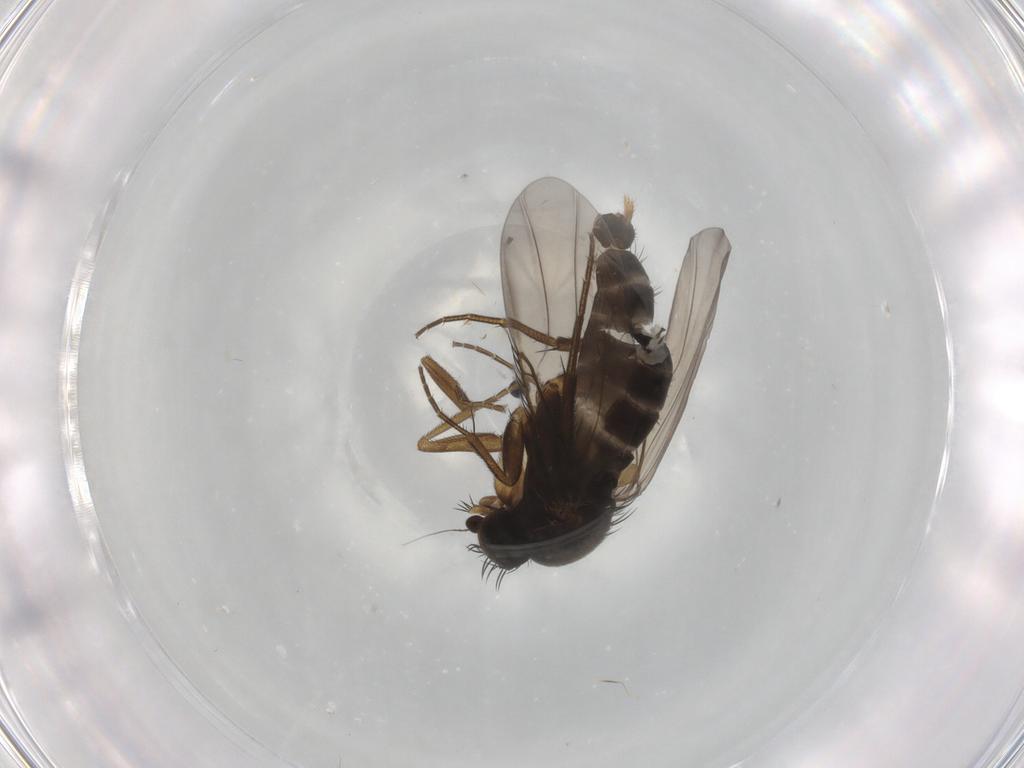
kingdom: Animalia
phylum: Arthropoda
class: Insecta
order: Diptera
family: Phoridae
